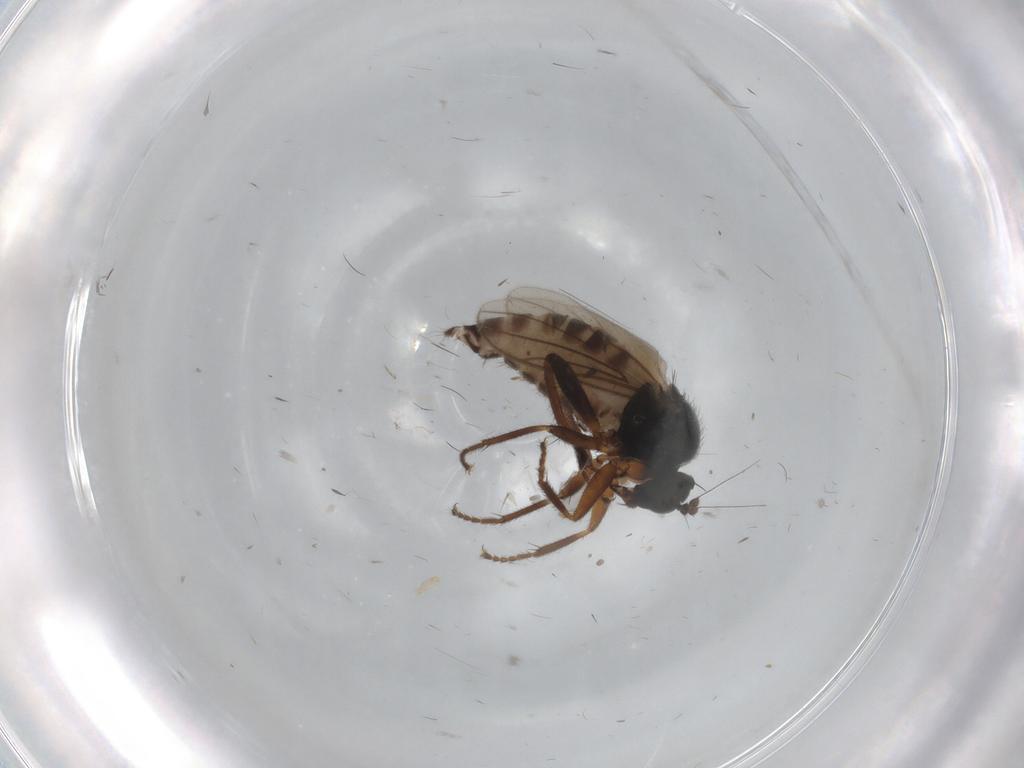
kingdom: Animalia
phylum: Arthropoda
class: Insecta
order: Diptera
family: Hybotidae
